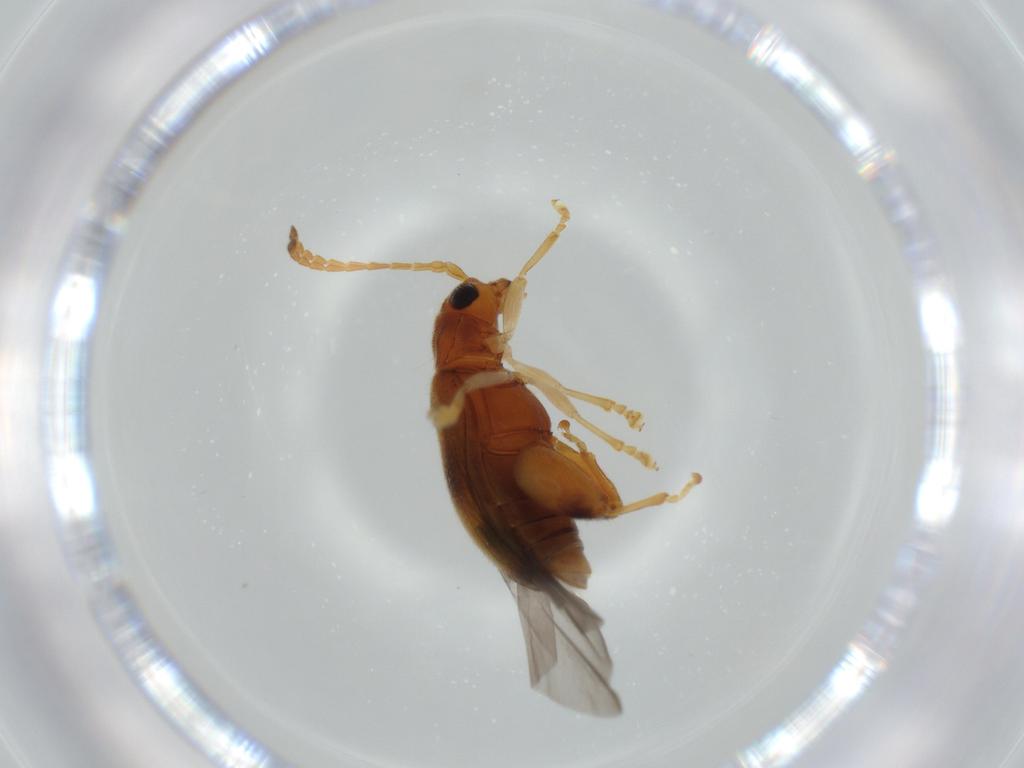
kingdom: Animalia
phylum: Arthropoda
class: Insecta
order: Coleoptera
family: Chrysomelidae
